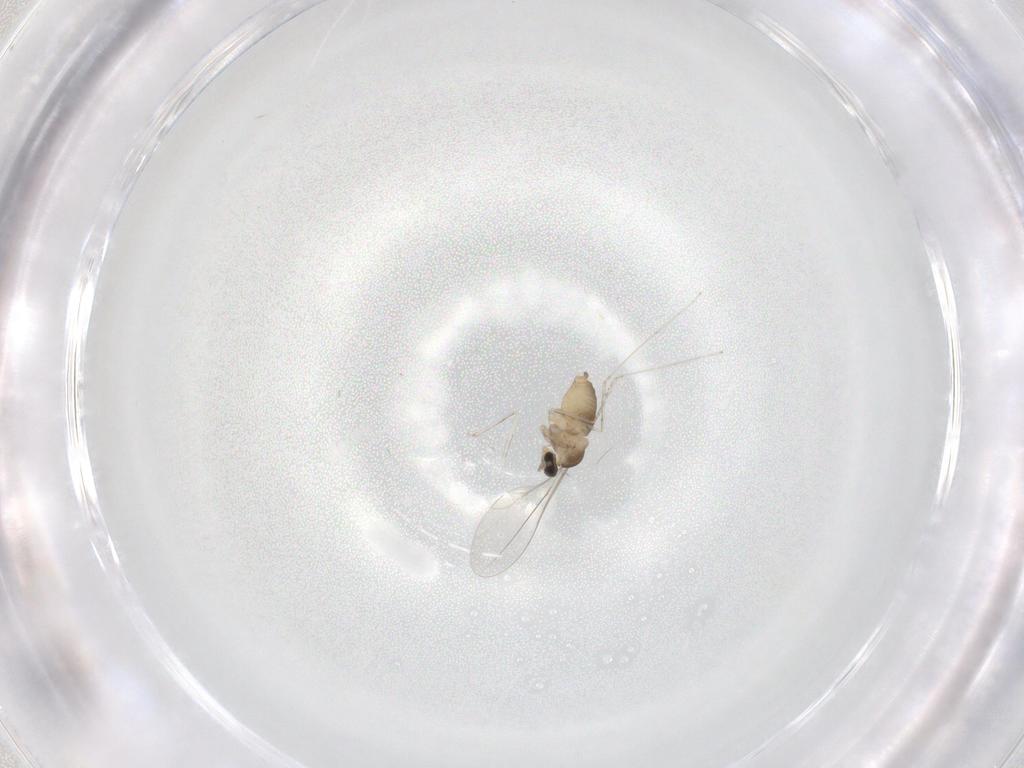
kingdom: Animalia
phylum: Arthropoda
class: Insecta
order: Diptera
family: Cecidomyiidae
